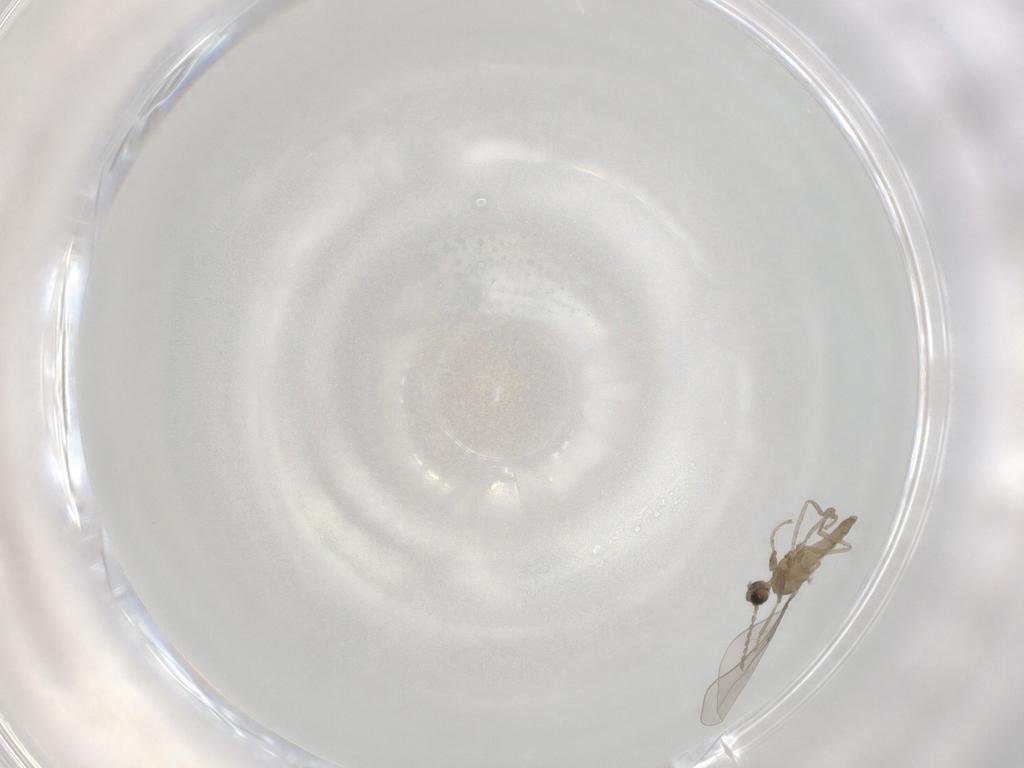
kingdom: Animalia
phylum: Arthropoda
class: Insecta
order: Diptera
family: Cecidomyiidae
